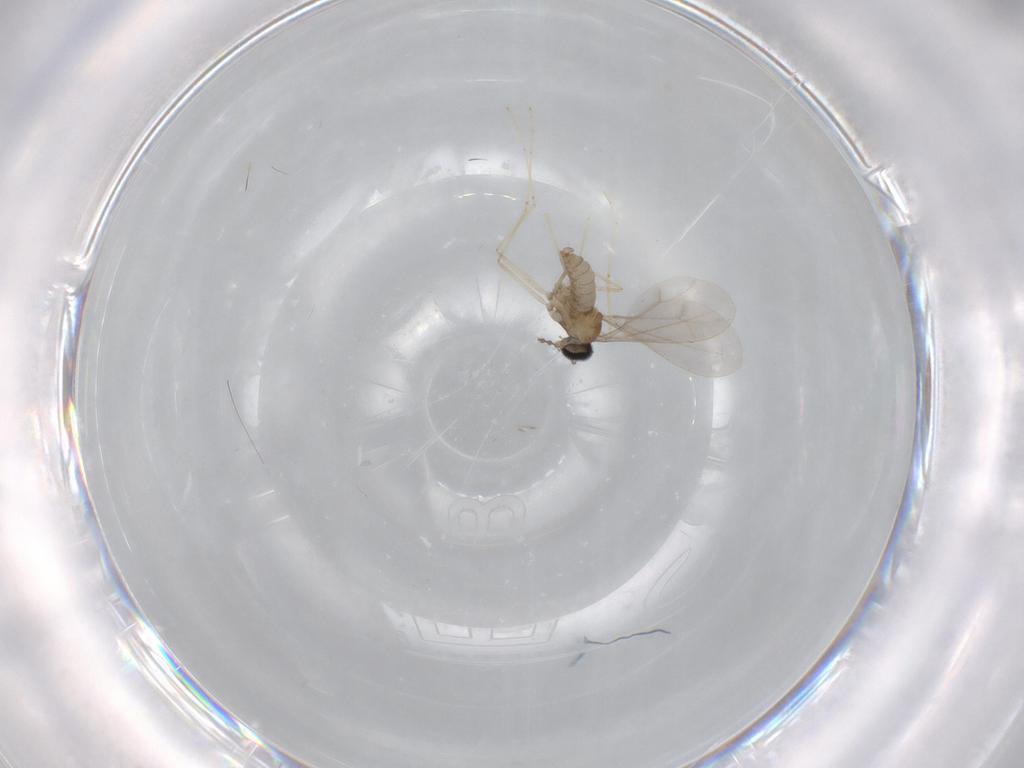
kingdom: Animalia
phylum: Arthropoda
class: Insecta
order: Diptera
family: Cecidomyiidae
